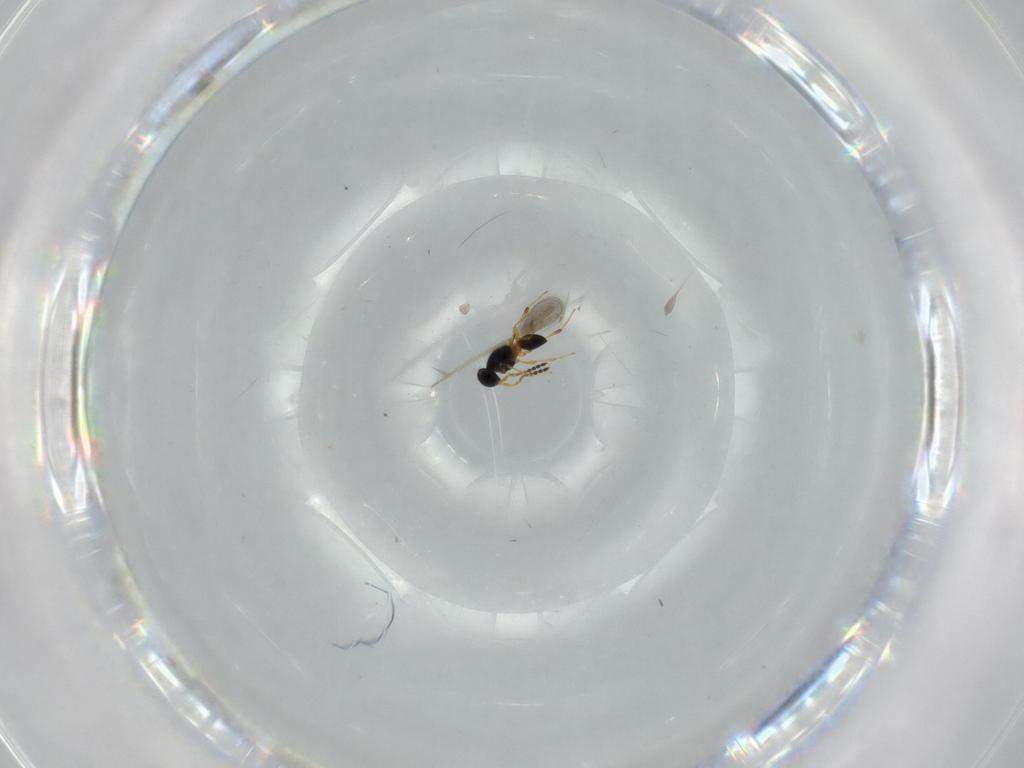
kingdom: Animalia
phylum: Arthropoda
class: Insecta
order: Hymenoptera
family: Platygastridae
